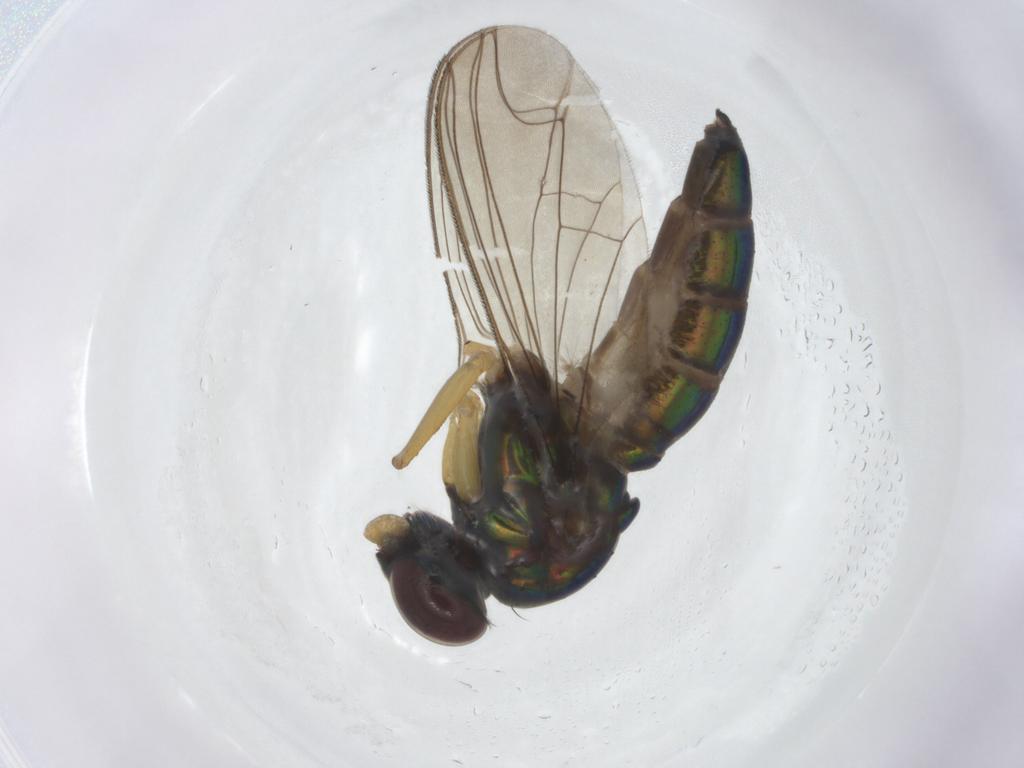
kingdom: Animalia
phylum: Arthropoda
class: Insecta
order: Diptera
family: Dolichopodidae
